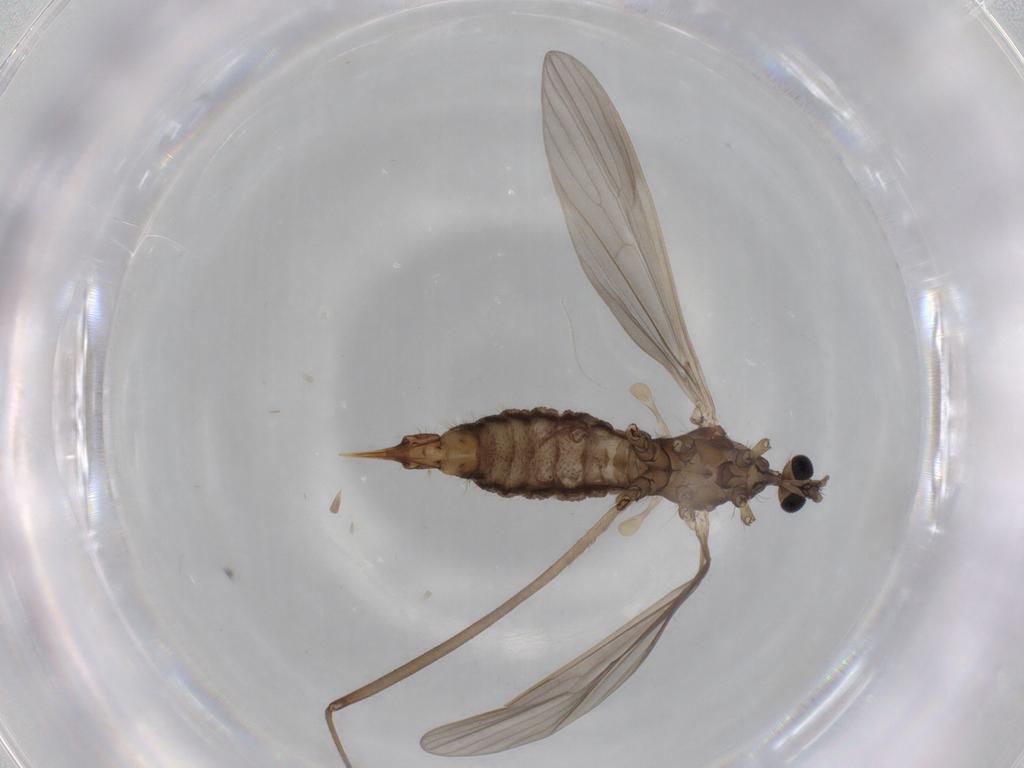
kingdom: Animalia
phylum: Arthropoda
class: Insecta
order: Diptera
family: Limoniidae
